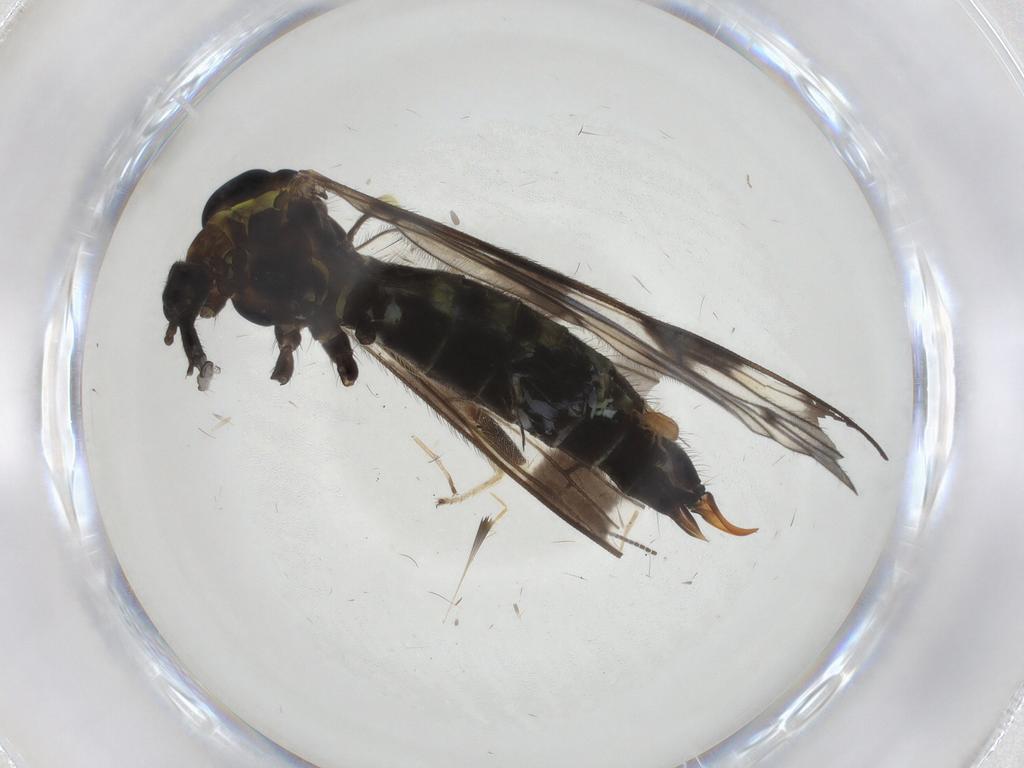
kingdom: Animalia
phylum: Arthropoda
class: Insecta
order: Diptera
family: Limoniidae
